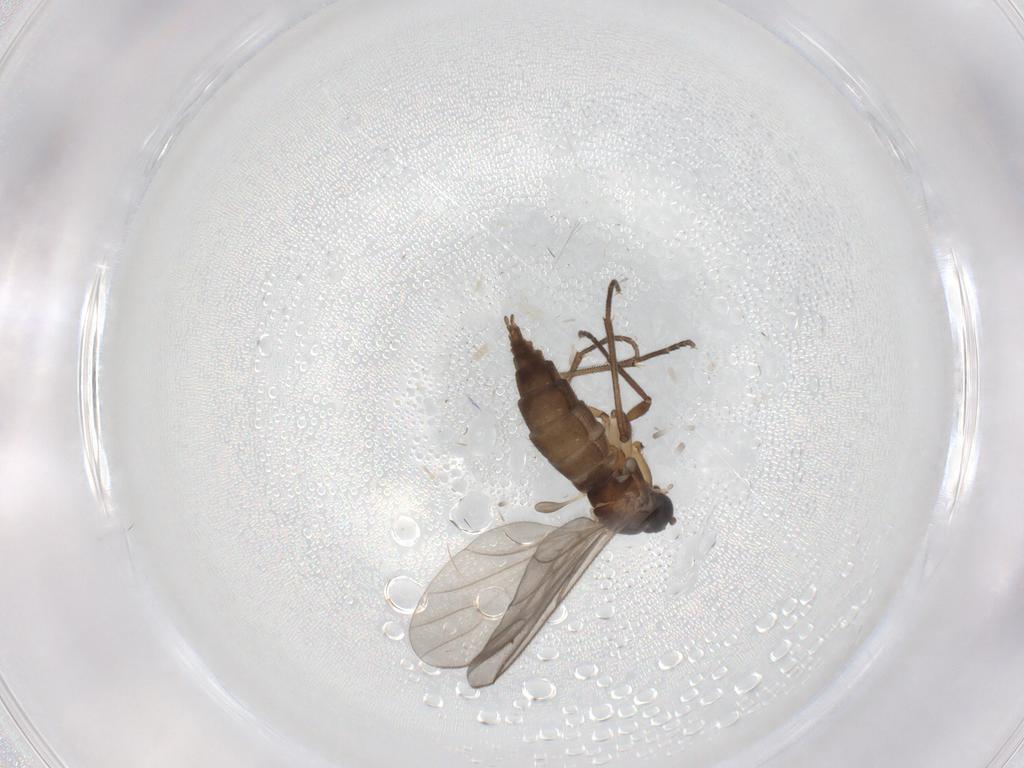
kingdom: Animalia
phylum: Arthropoda
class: Insecta
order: Diptera
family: Sciaridae
